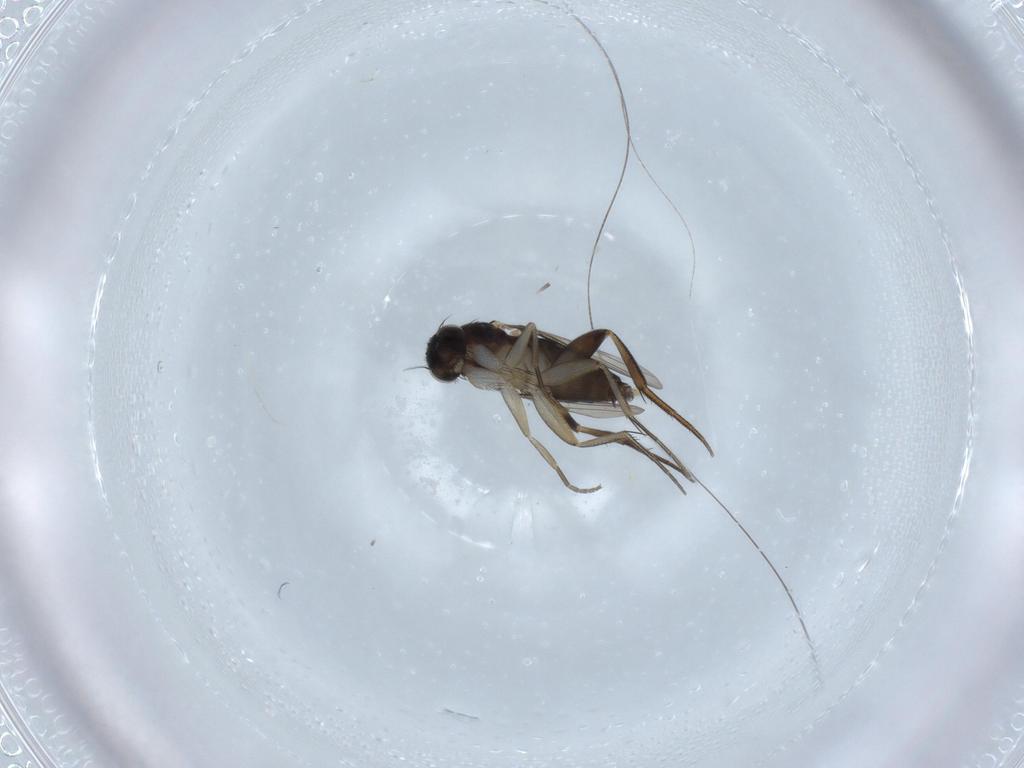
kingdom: Animalia
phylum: Arthropoda
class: Insecta
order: Diptera
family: Phoridae
